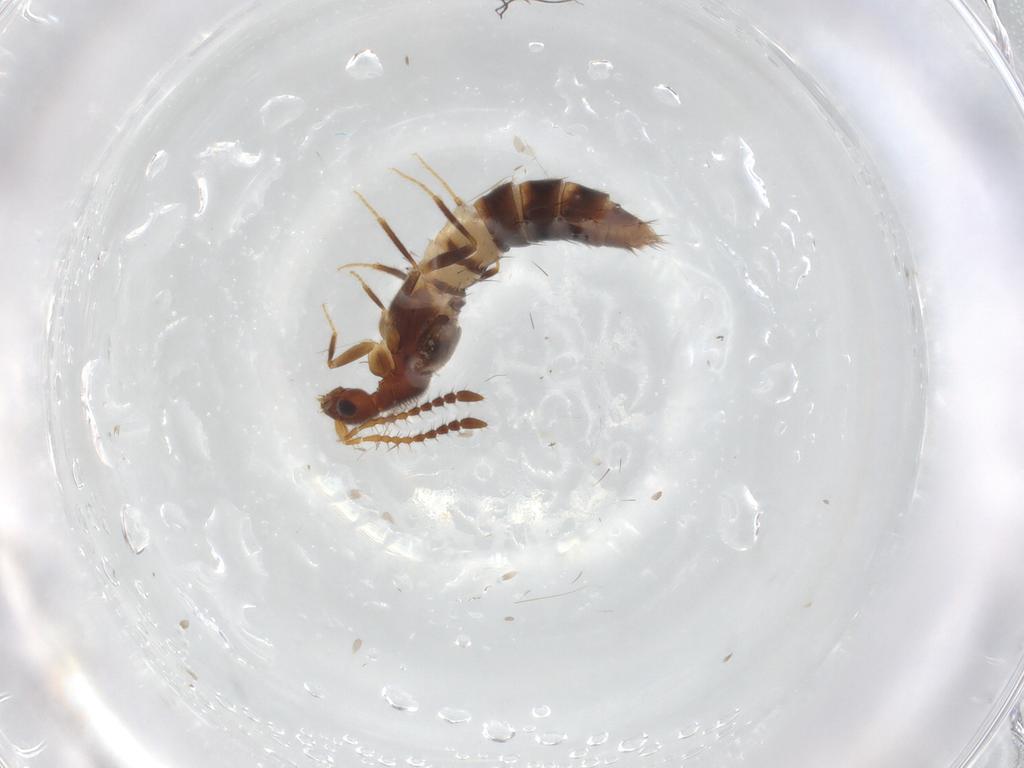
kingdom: Animalia
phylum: Arthropoda
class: Insecta
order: Coleoptera
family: Staphylinidae
